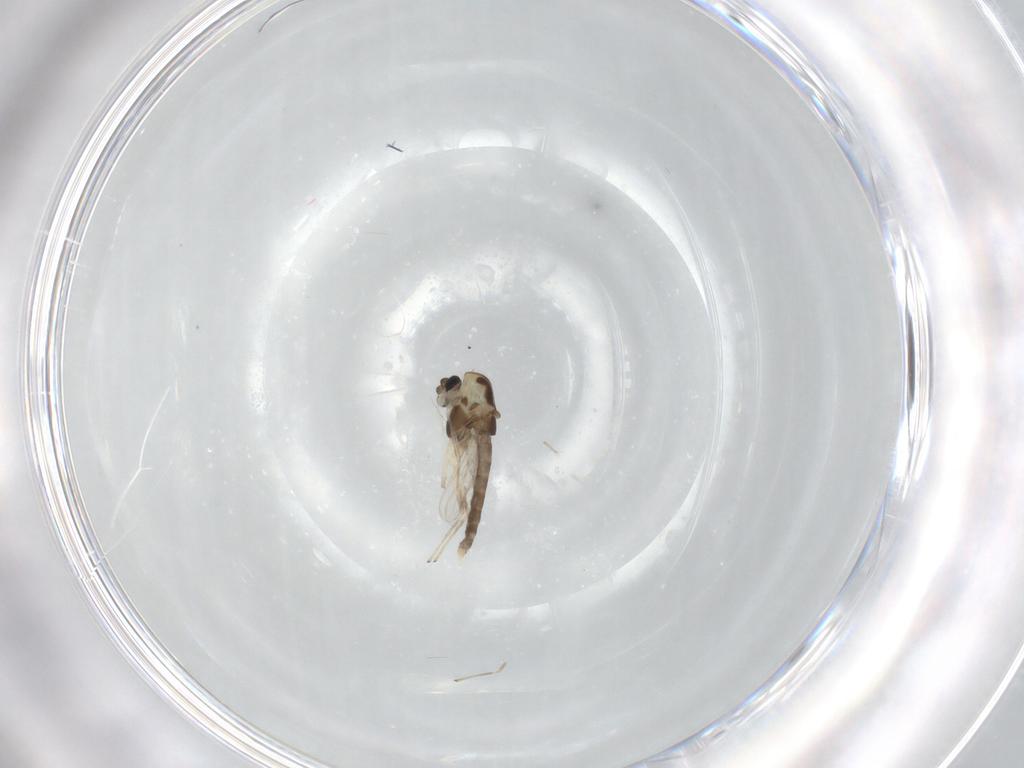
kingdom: Animalia
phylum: Arthropoda
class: Insecta
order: Diptera
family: Chironomidae
